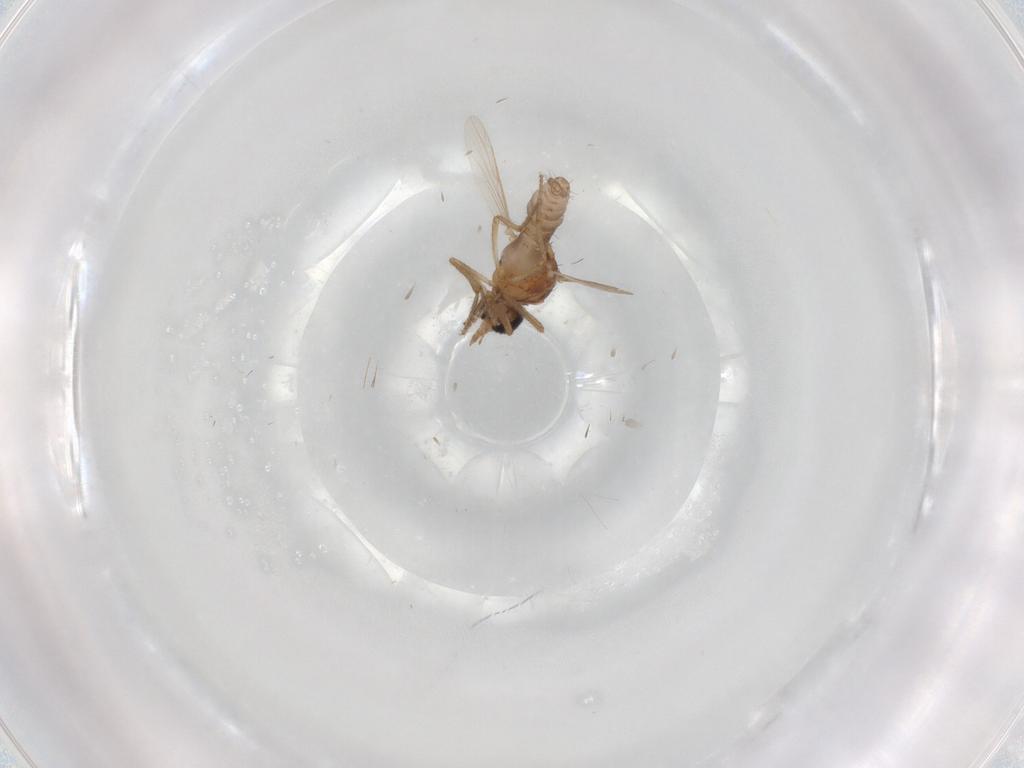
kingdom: Animalia
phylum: Arthropoda
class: Insecta
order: Diptera
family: Ceratopogonidae
